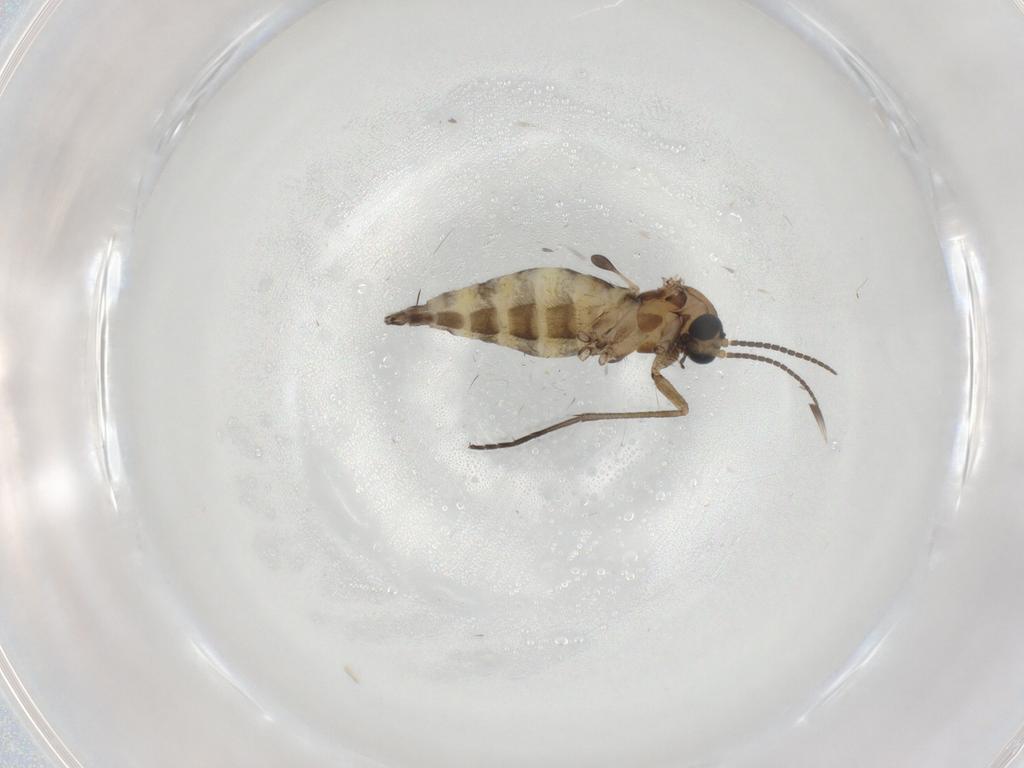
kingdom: Animalia
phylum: Arthropoda
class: Insecta
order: Diptera
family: Sciaridae
